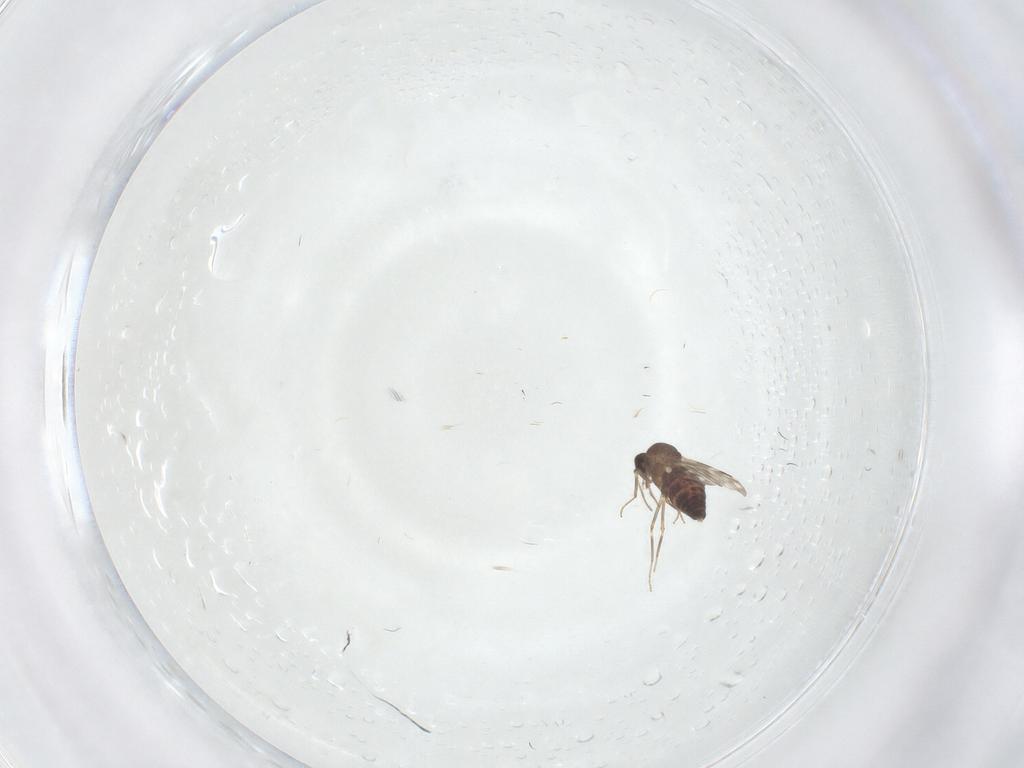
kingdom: Animalia
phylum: Arthropoda
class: Insecta
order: Diptera
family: Ceratopogonidae
